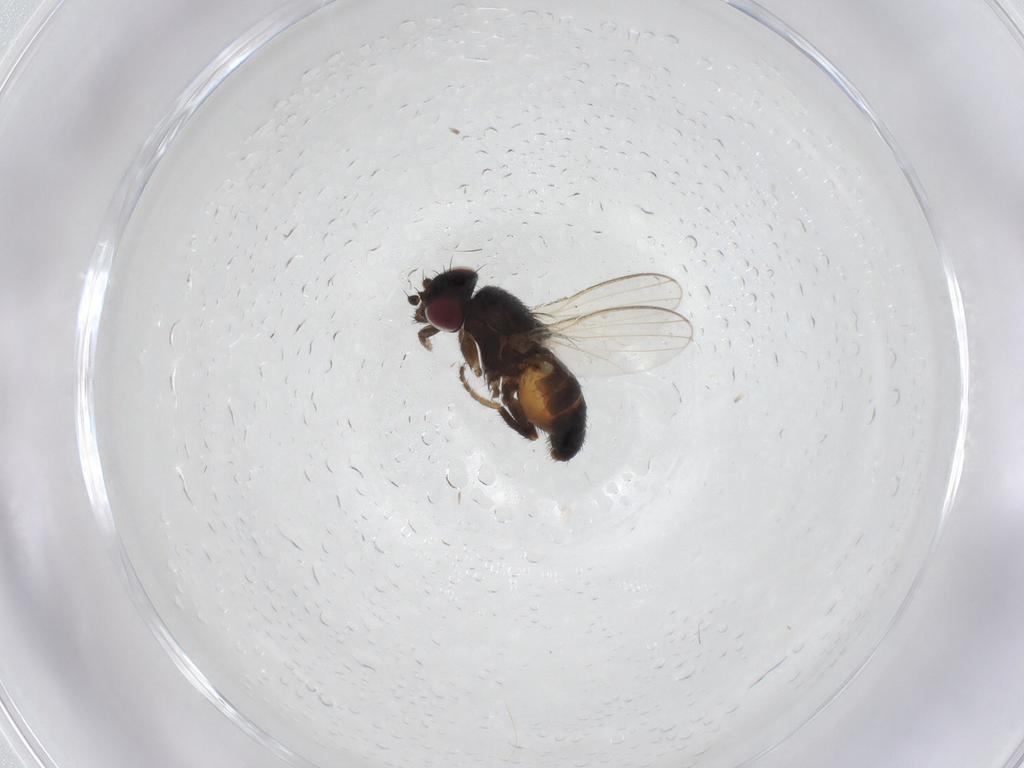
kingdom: Animalia
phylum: Arthropoda
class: Insecta
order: Diptera
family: Milichiidae
